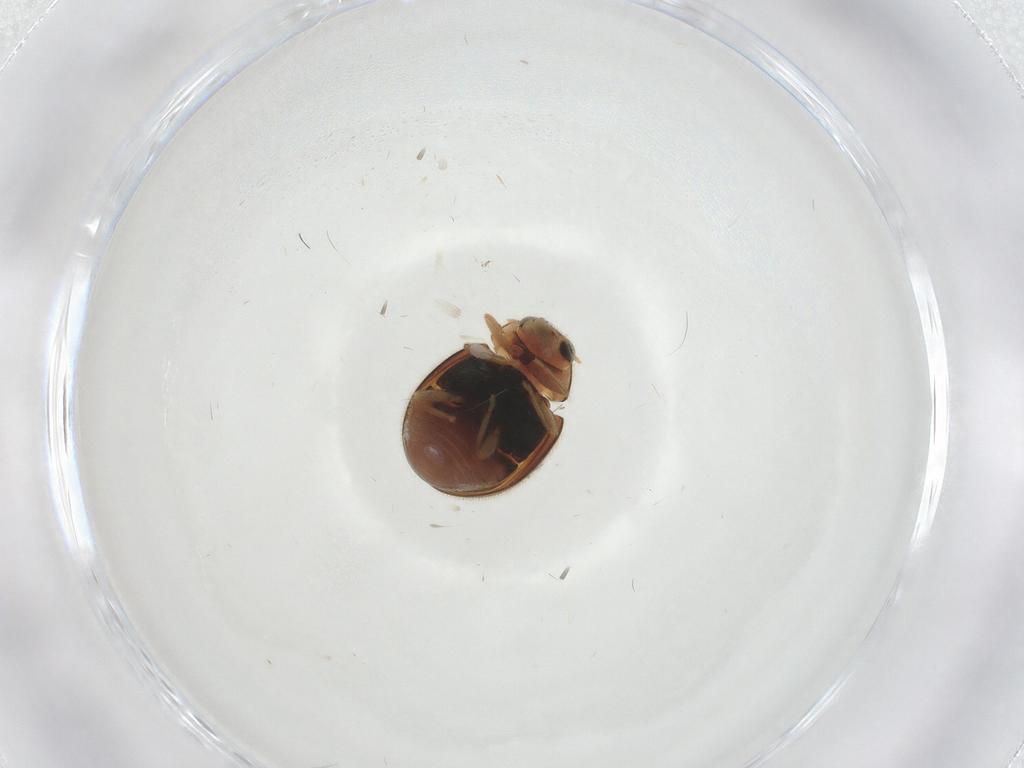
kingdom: Animalia
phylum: Arthropoda
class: Insecta
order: Coleoptera
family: Coccinellidae
